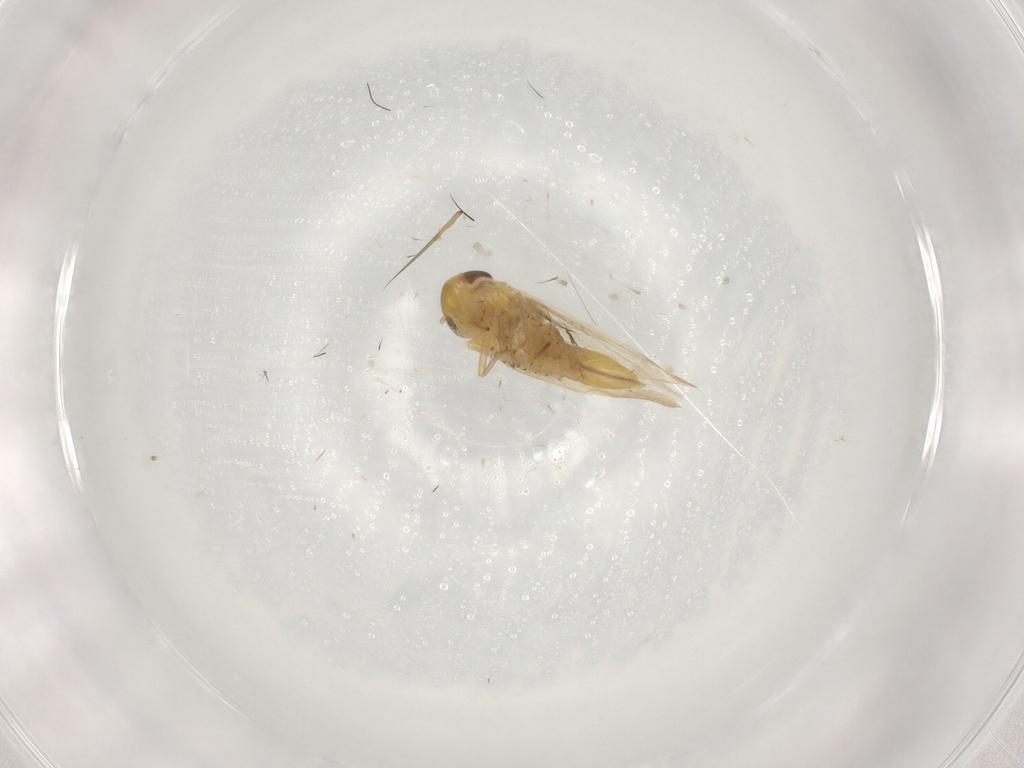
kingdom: Animalia
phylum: Arthropoda
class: Insecta
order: Hemiptera
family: Cicadellidae
